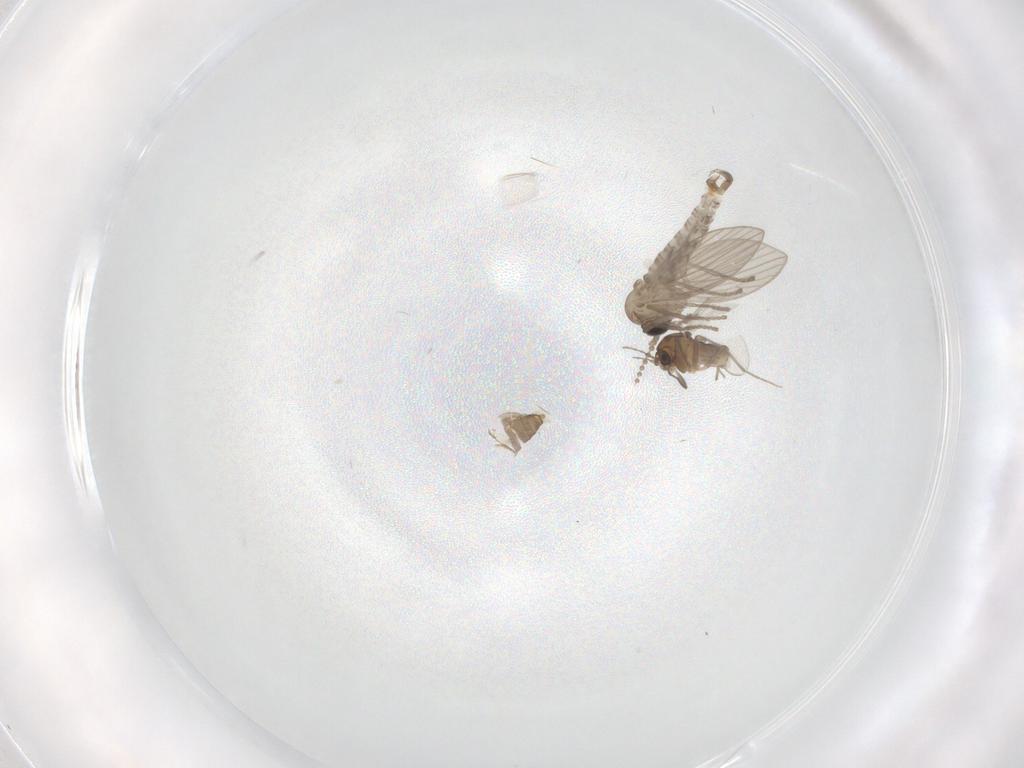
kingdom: Animalia
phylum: Arthropoda
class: Insecta
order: Diptera
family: Psychodidae
